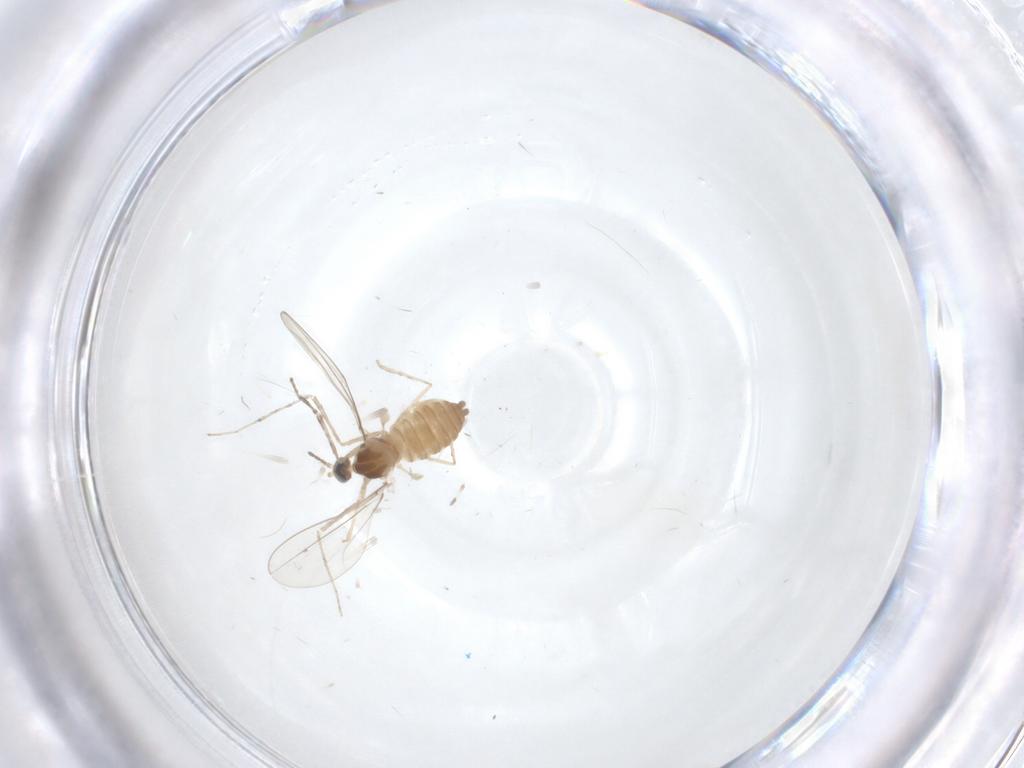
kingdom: Animalia
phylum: Arthropoda
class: Insecta
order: Diptera
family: Cecidomyiidae
